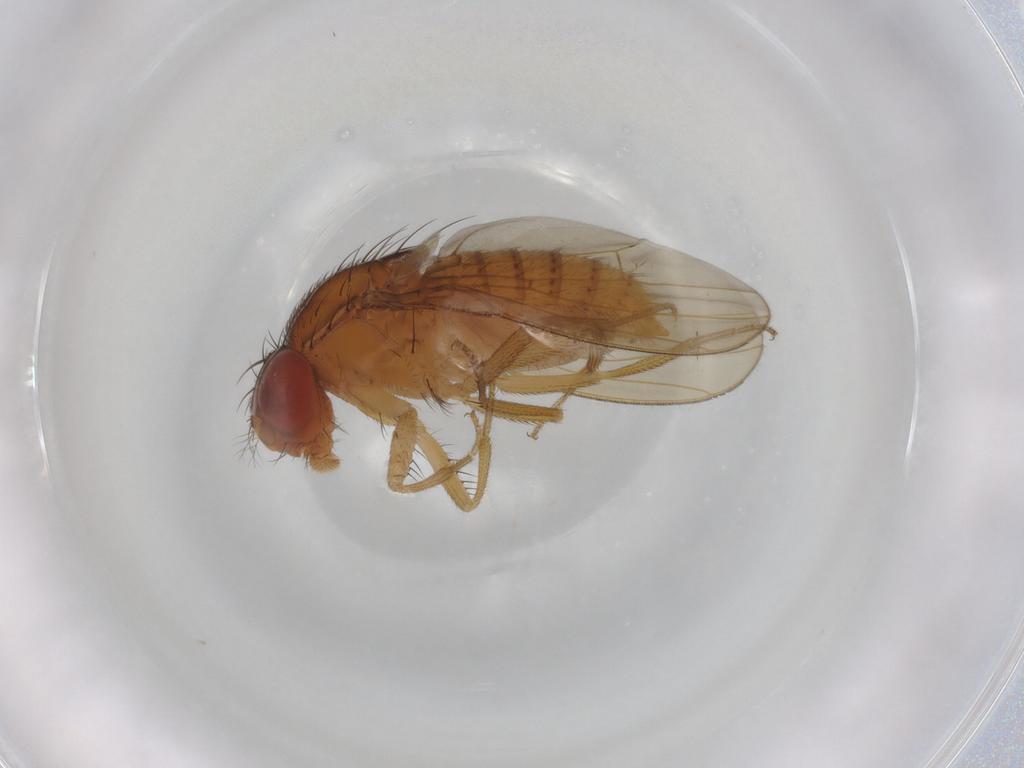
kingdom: Animalia
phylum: Arthropoda
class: Insecta
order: Diptera
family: Drosophilidae
